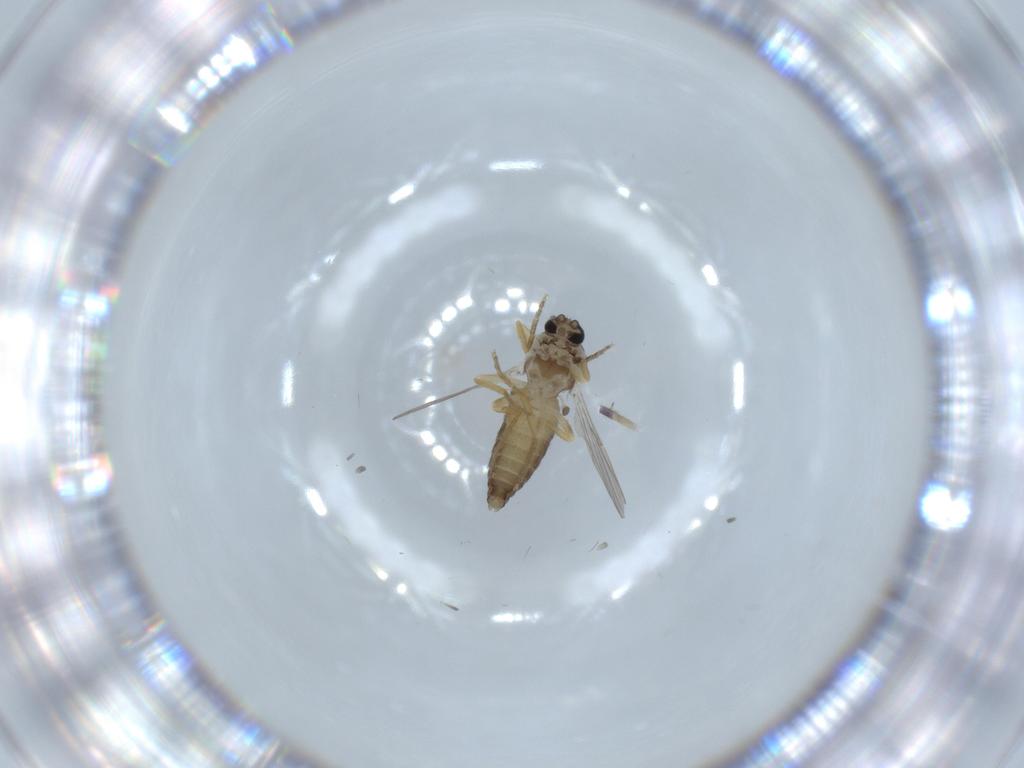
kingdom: Animalia
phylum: Arthropoda
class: Insecta
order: Diptera
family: Ceratopogonidae
